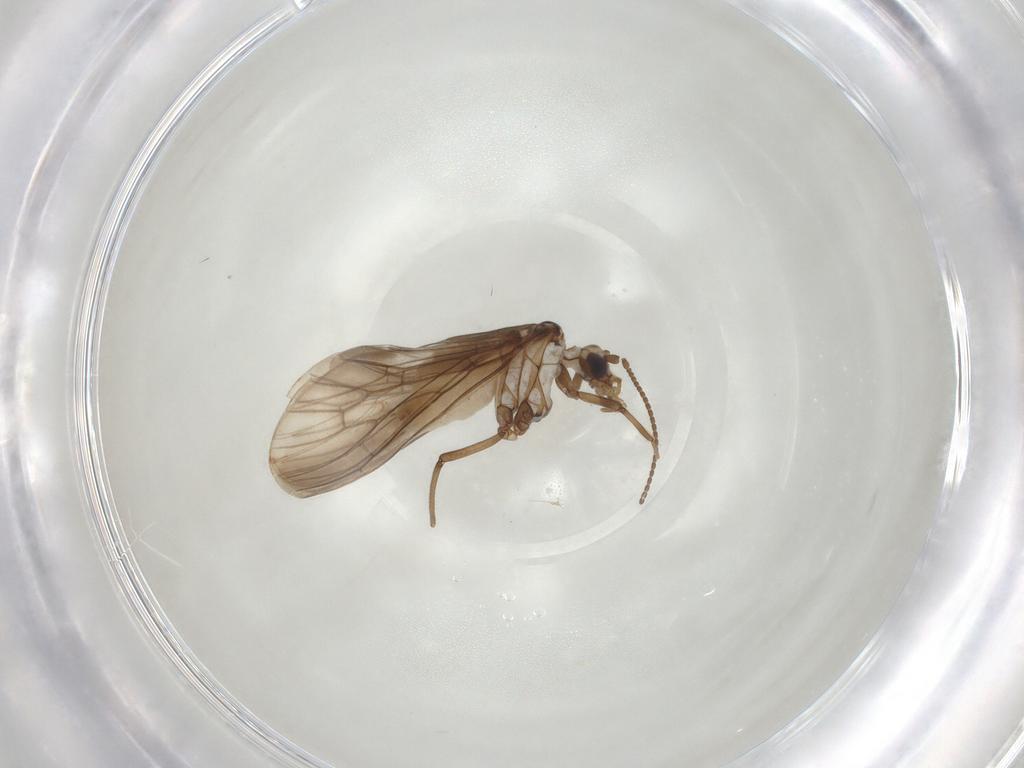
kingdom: Animalia
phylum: Arthropoda
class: Insecta
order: Neuroptera
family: Coniopterygidae
